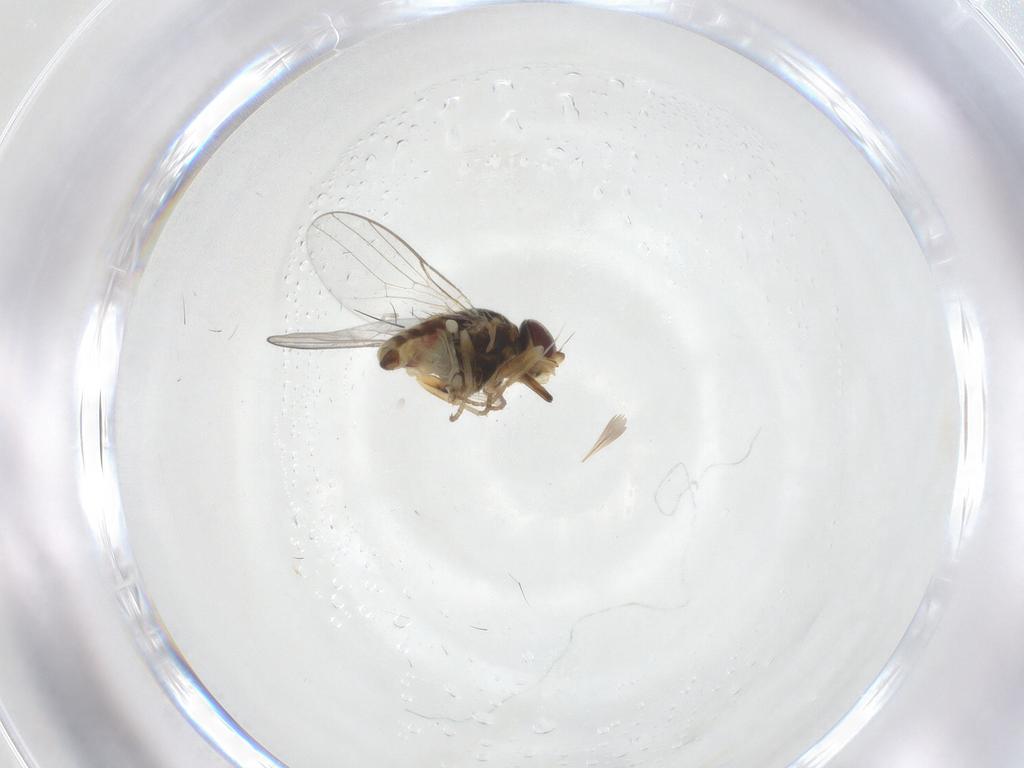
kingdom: Animalia
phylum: Arthropoda
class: Insecta
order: Diptera
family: Chloropidae
